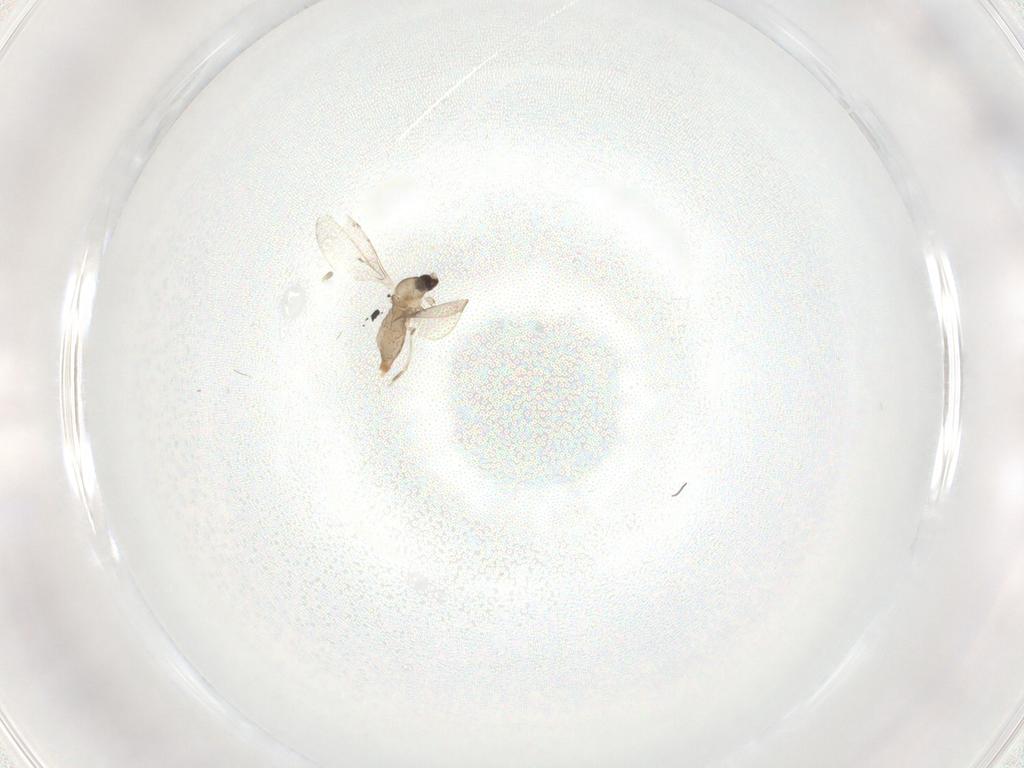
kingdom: Animalia
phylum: Arthropoda
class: Insecta
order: Diptera
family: Cecidomyiidae
